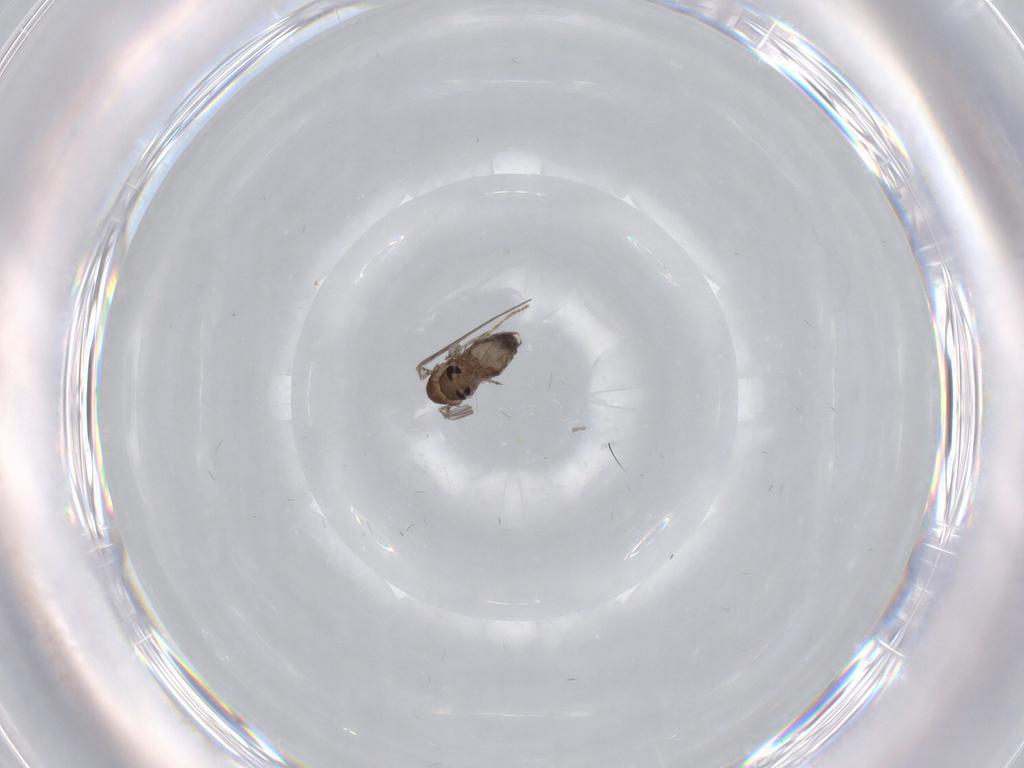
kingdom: Animalia
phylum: Arthropoda
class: Insecta
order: Diptera
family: Psychodidae
